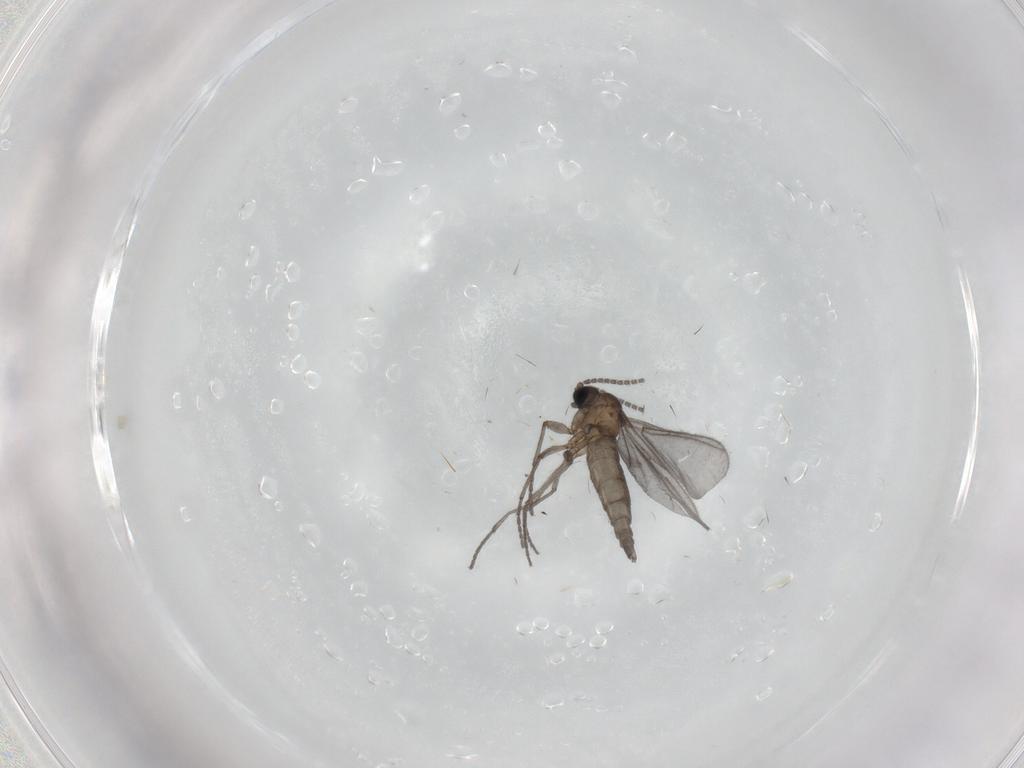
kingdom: Animalia
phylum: Arthropoda
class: Insecta
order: Diptera
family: Sciaridae
